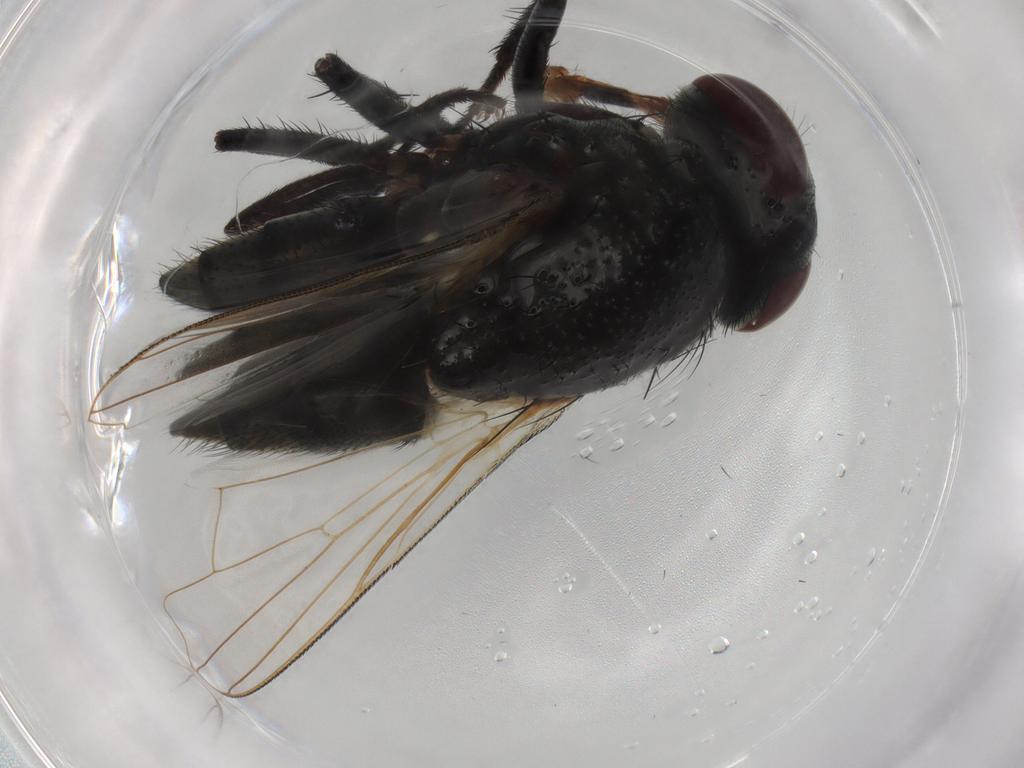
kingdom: Animalia
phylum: Arthropoda
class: Insecta
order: Diptera
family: Muscidae
